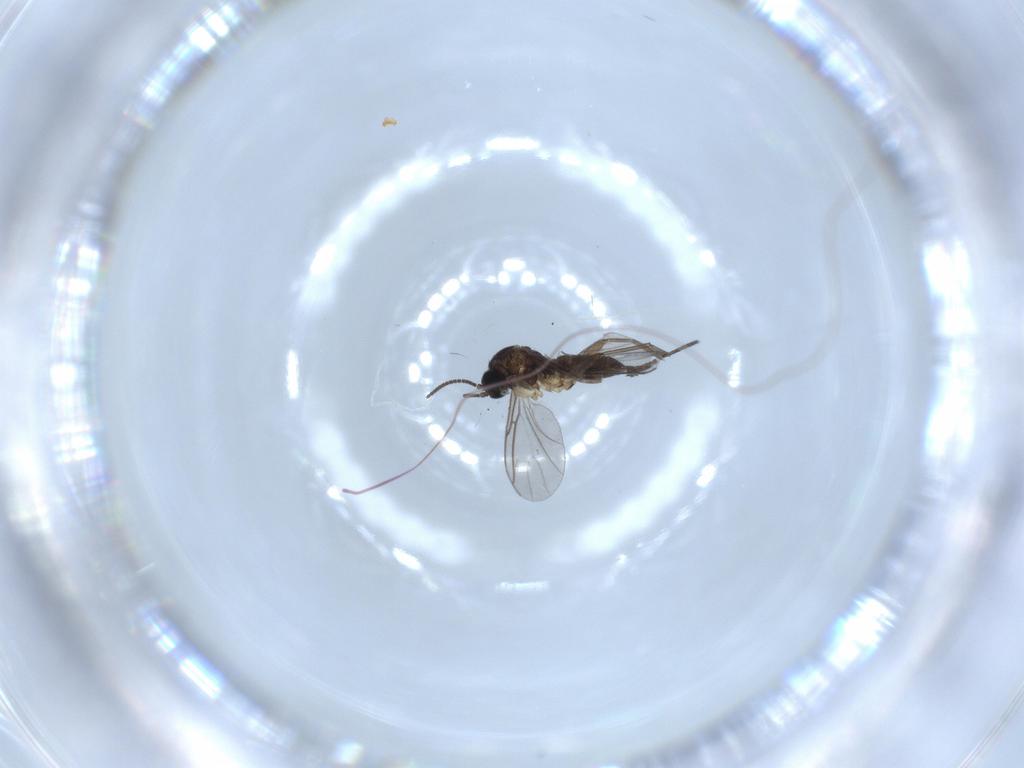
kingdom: Animalia
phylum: Arthropoda
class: Insecta
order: Diptera
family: Sciaridae
